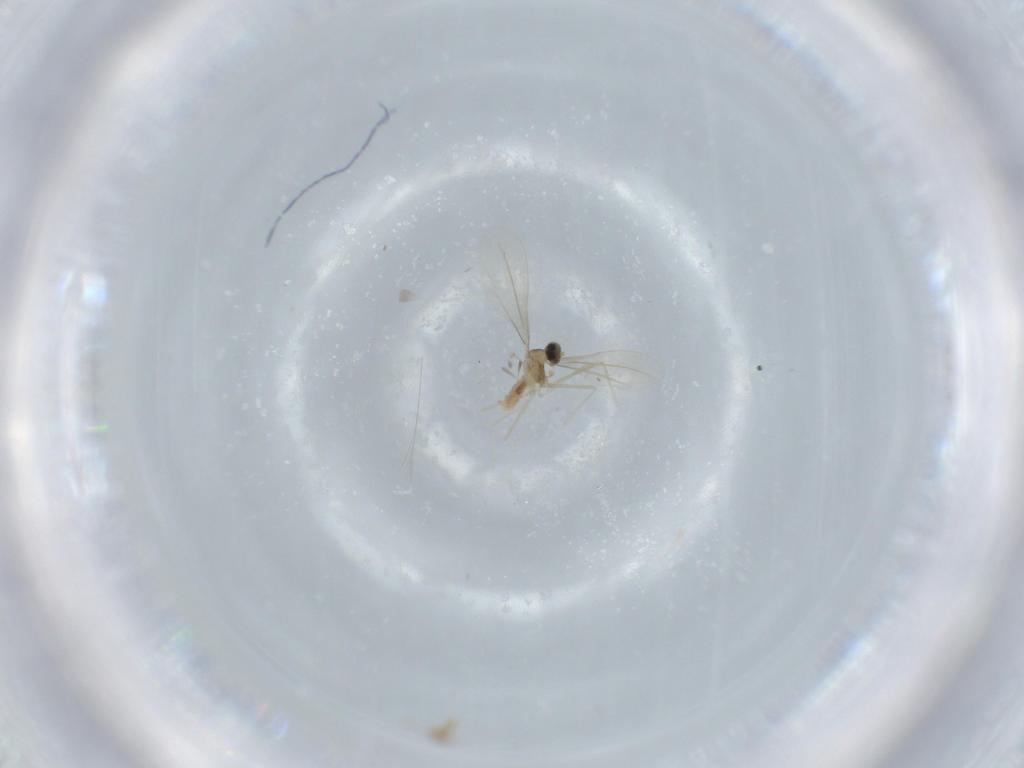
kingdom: Animalia
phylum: Arthropoda
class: Insecta
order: Diptera
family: Cecidomyiidae
